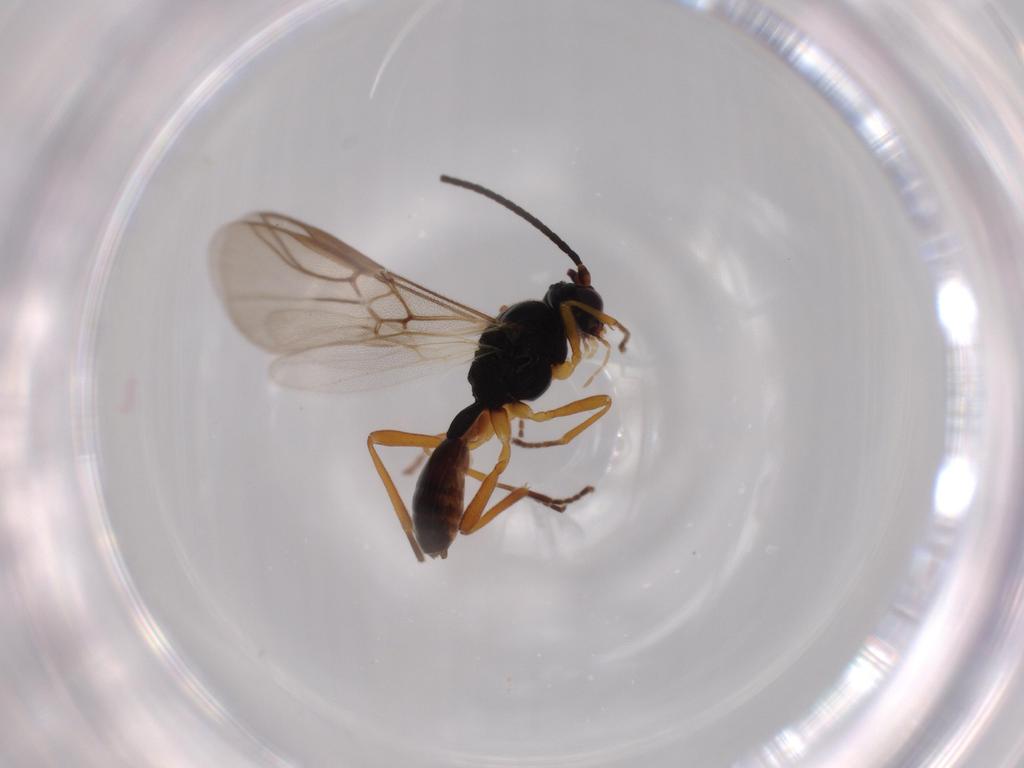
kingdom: Animalia
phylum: Arthropoda
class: Insecta
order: Hymenoptera
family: Braconidae
